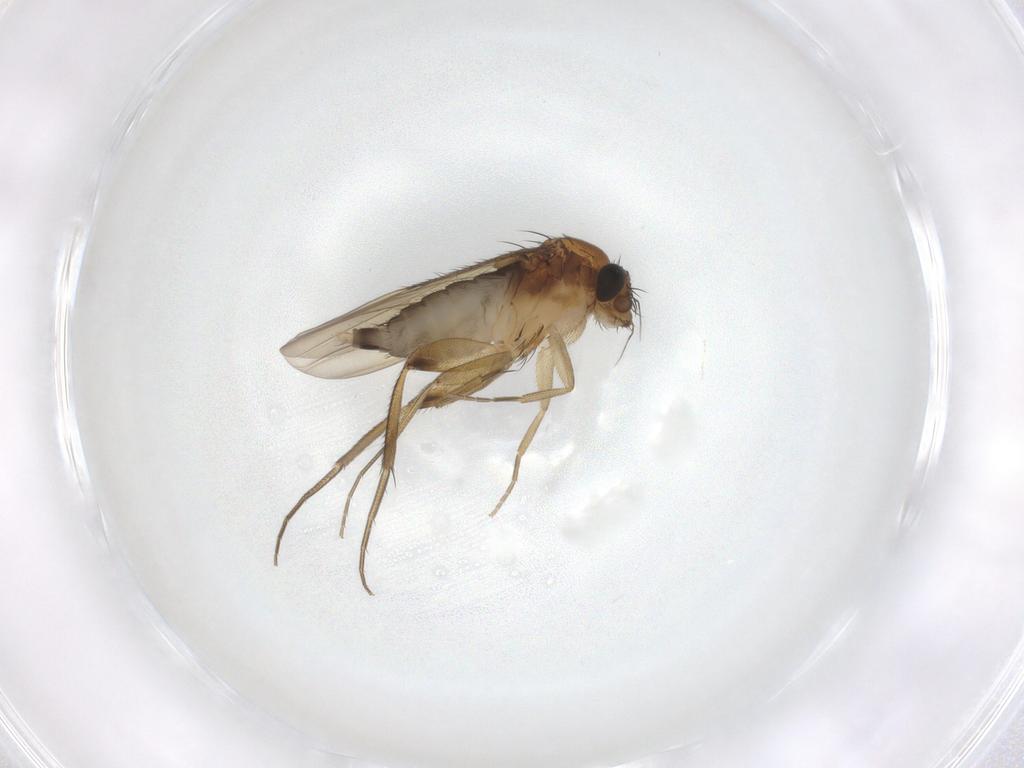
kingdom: Animalia
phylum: Arthropoda
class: Insecta
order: Diptera
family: Phoridae
